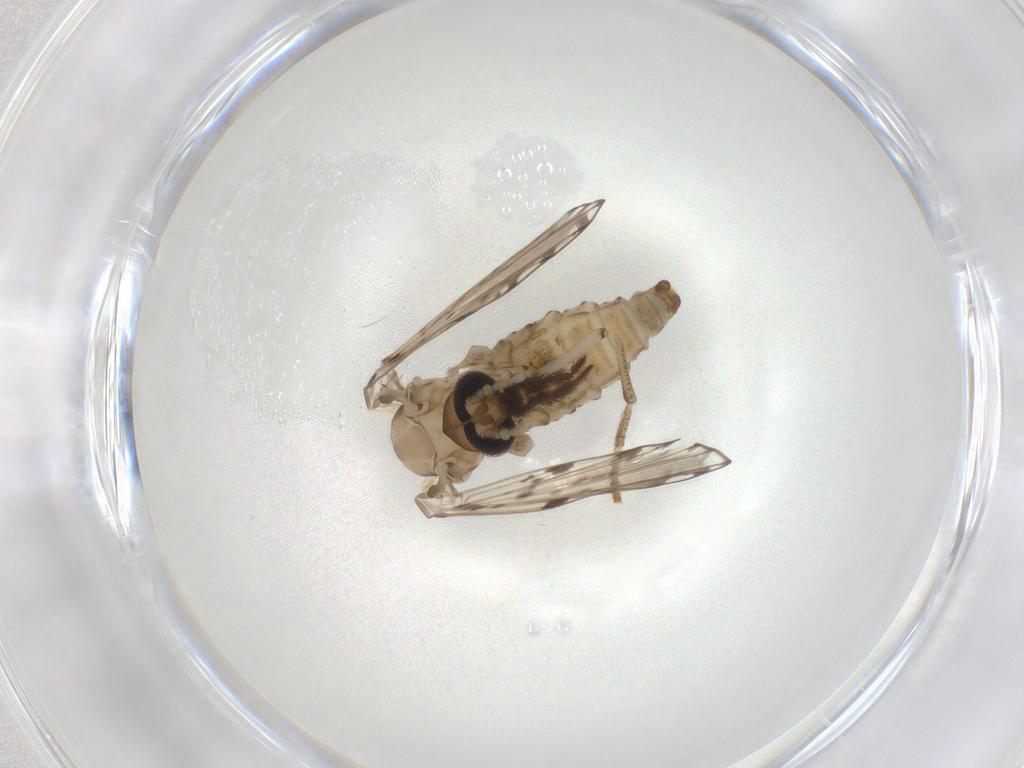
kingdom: Animalia
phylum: Arthropoda
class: Insecta
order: Diptera
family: Psychodidae
